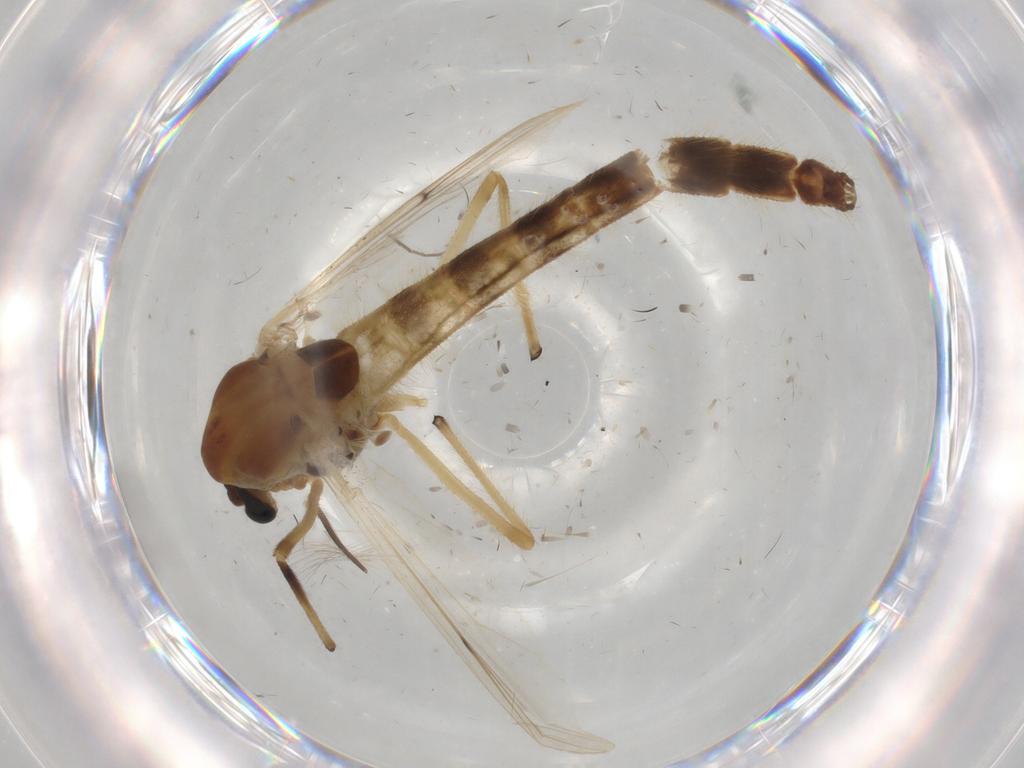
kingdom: Animalia
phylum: Arthropoda
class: Insecta
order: Diptera
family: Chironomidae
